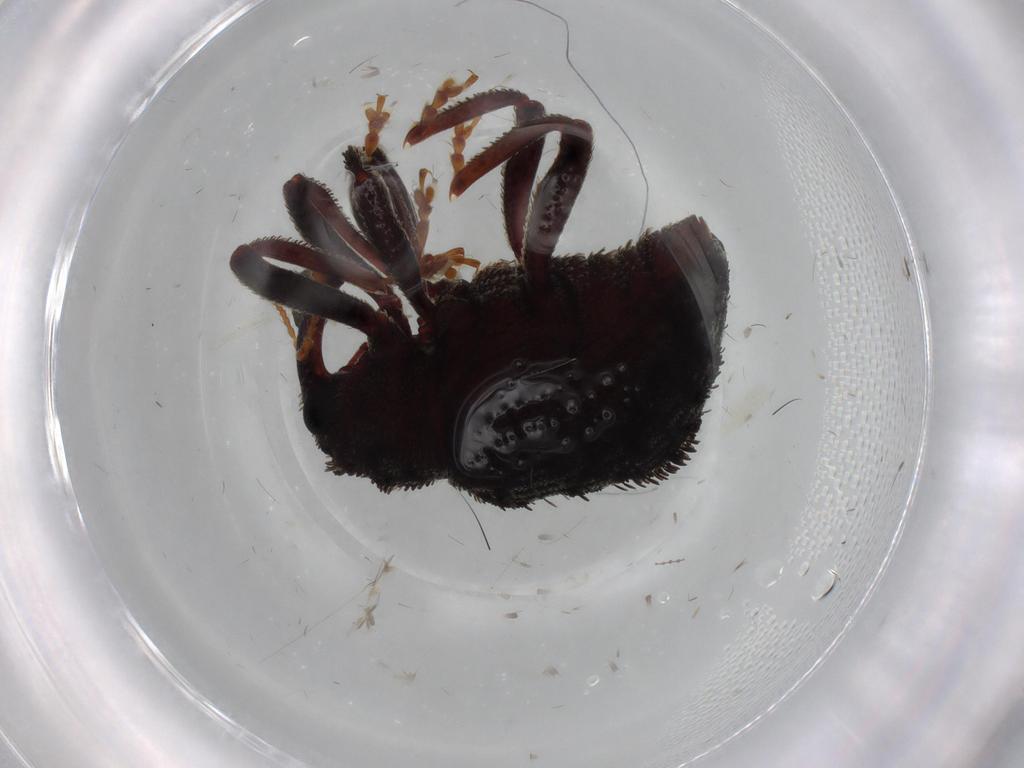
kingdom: Animalia
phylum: Arthropoda
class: Insecta
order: Coleoptera
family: Curculionidae
